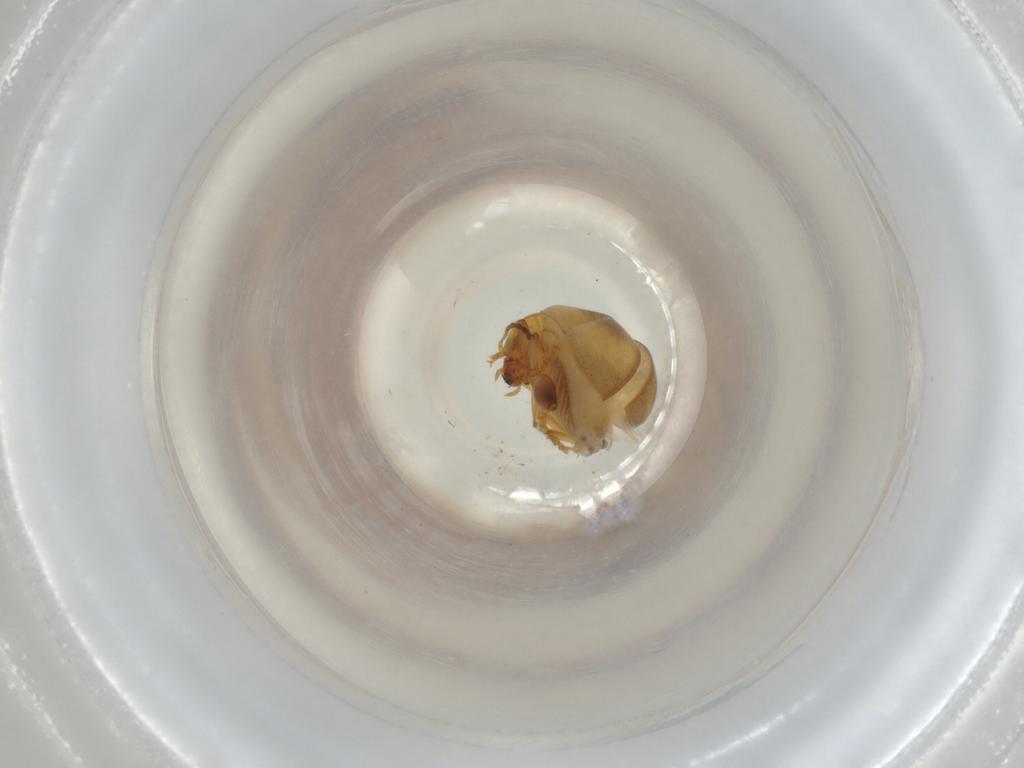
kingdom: Animalia
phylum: Arthropoda
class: Insecta
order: Coleoptera
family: Chrysomelidae
